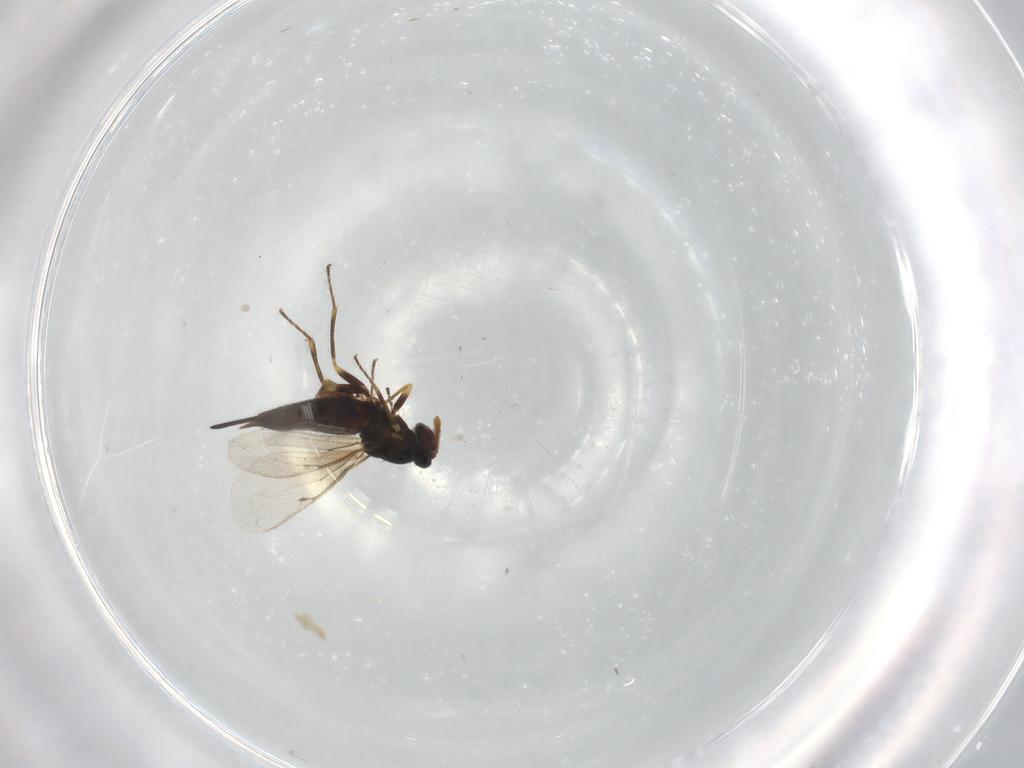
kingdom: Animalia
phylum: Arthropoda
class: Insecta
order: Hymenoptera
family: Eulophidae
